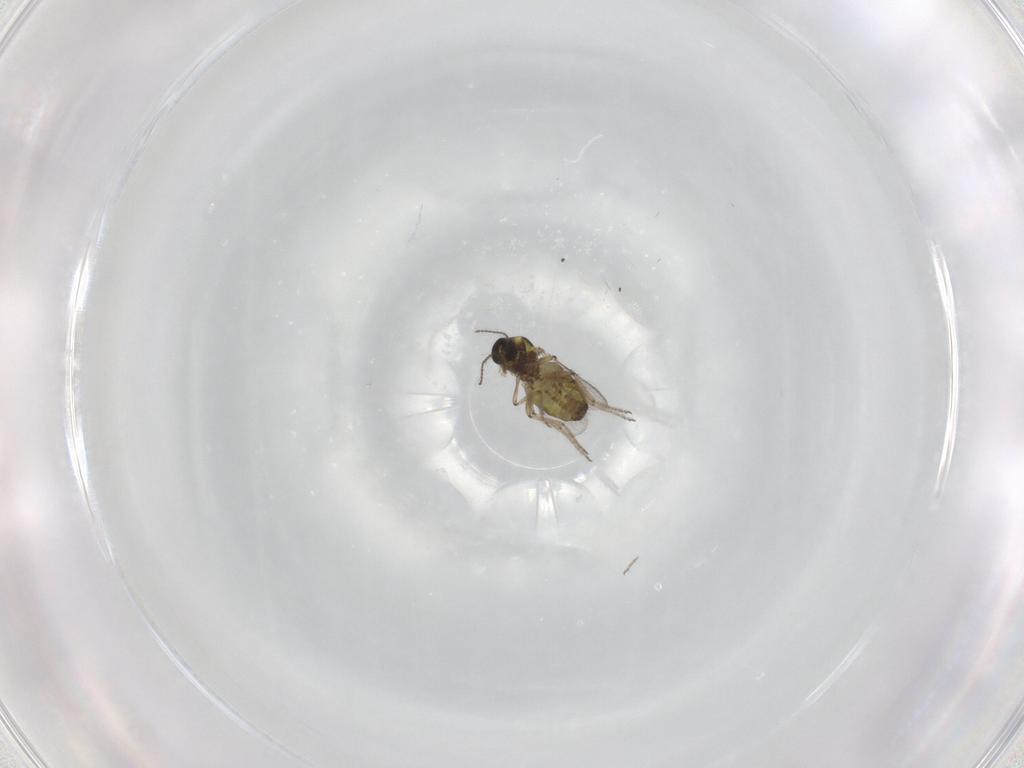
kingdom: Animalia
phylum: Arthropoda
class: Insecta
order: Diptera
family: Ceratopogonidae
